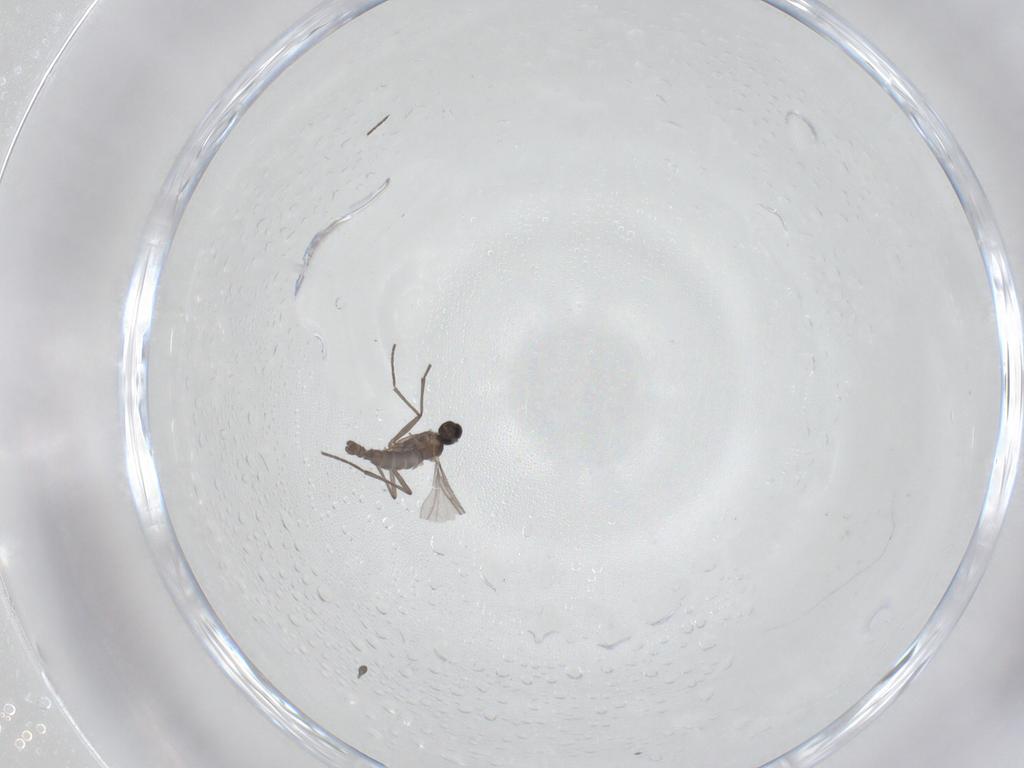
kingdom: Animalia
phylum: Arthropoda
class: Insecta
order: Diptera
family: Sciaridae
